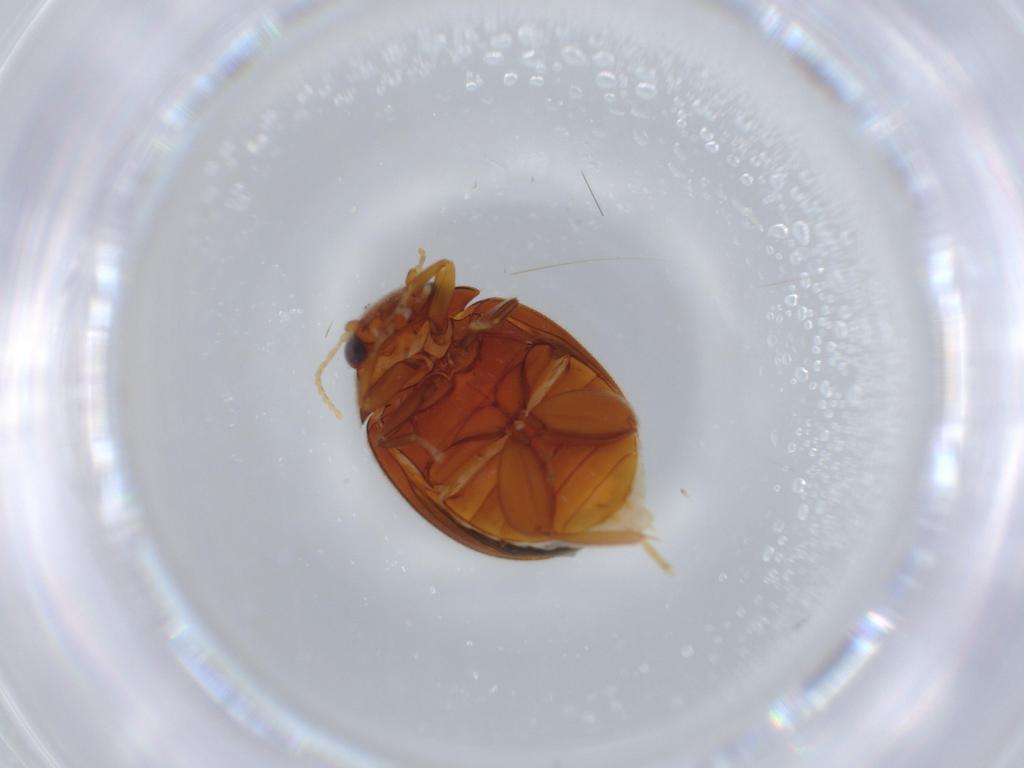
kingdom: Animalia
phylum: Arthropoda
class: Insecta
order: Coleoptera
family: Scirtidae
